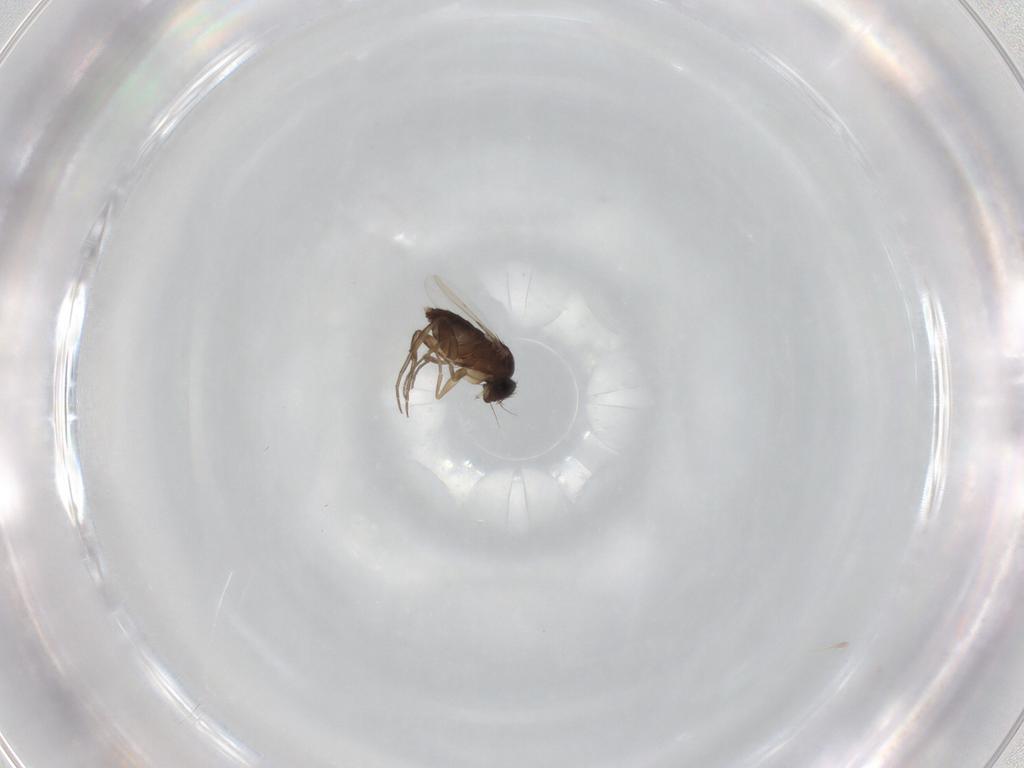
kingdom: Animalia
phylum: Arthropoda
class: Insecta
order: Diptera
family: Phoridae
